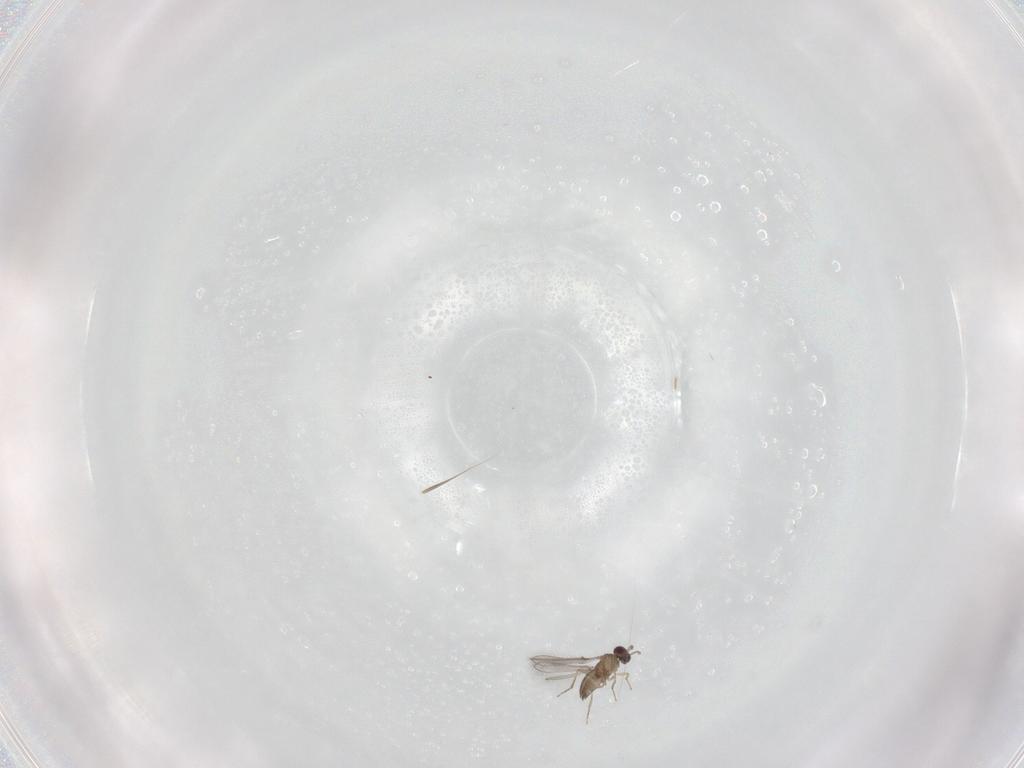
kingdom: Animalia
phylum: Arthropoda
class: Insecta
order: Hymenoptera
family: Mymaridae
